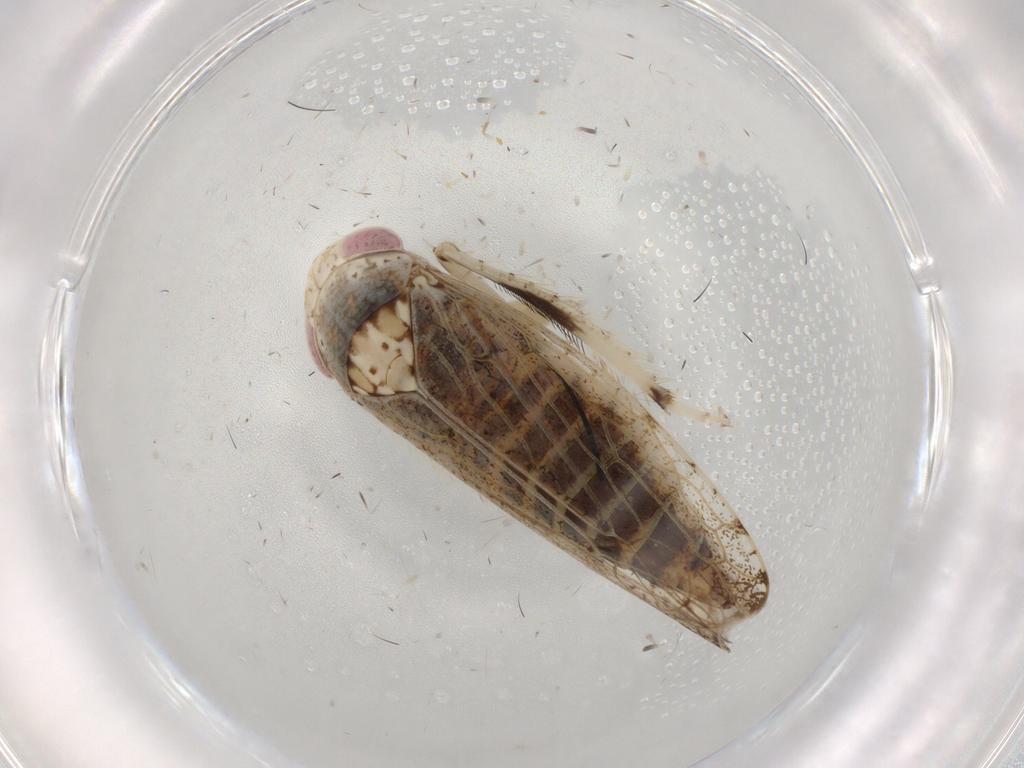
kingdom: Animalia
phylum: Arthropoda
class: Insecta
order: Hemiptera
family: Cicadellidae
